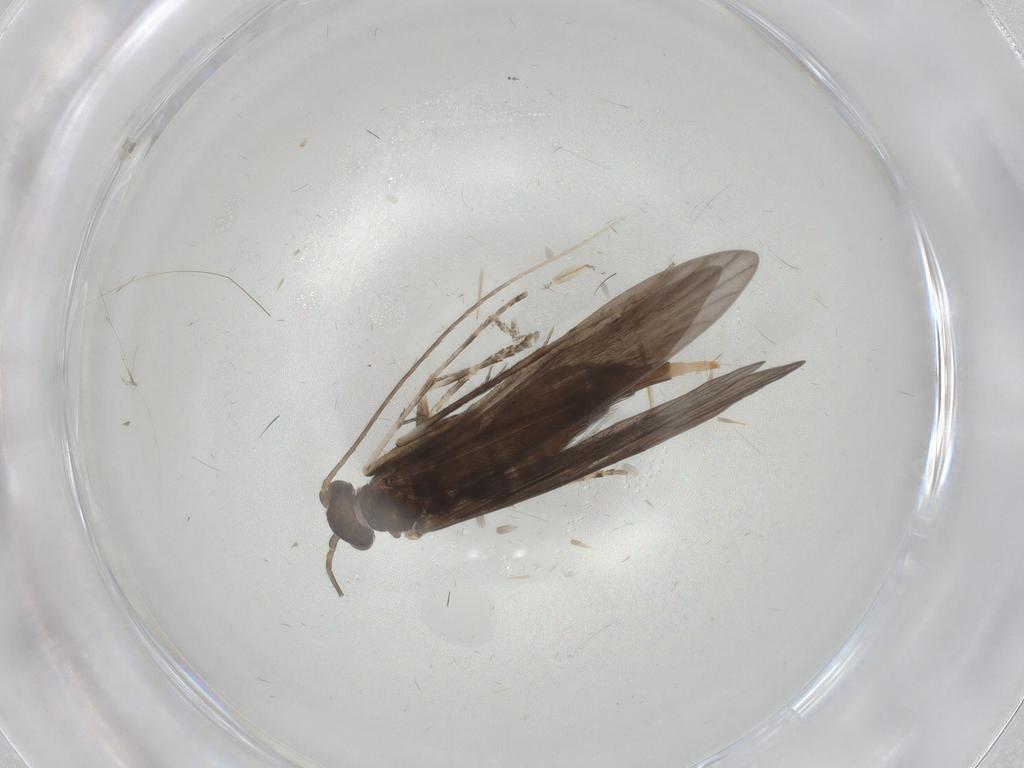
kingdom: Animalia
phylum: Arthropoda
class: Insecta
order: Trichoptera
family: Xiphocentronidae
